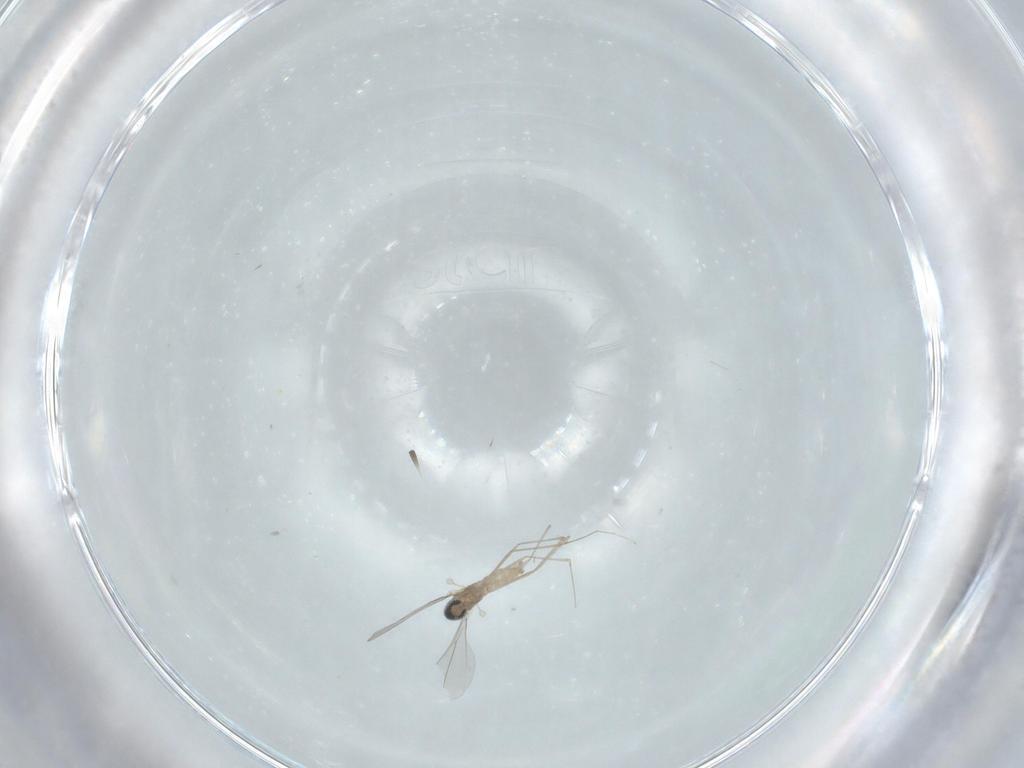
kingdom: Animalia
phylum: Arthropoda
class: Insecta
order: Diptera
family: Cecidomyiidae
